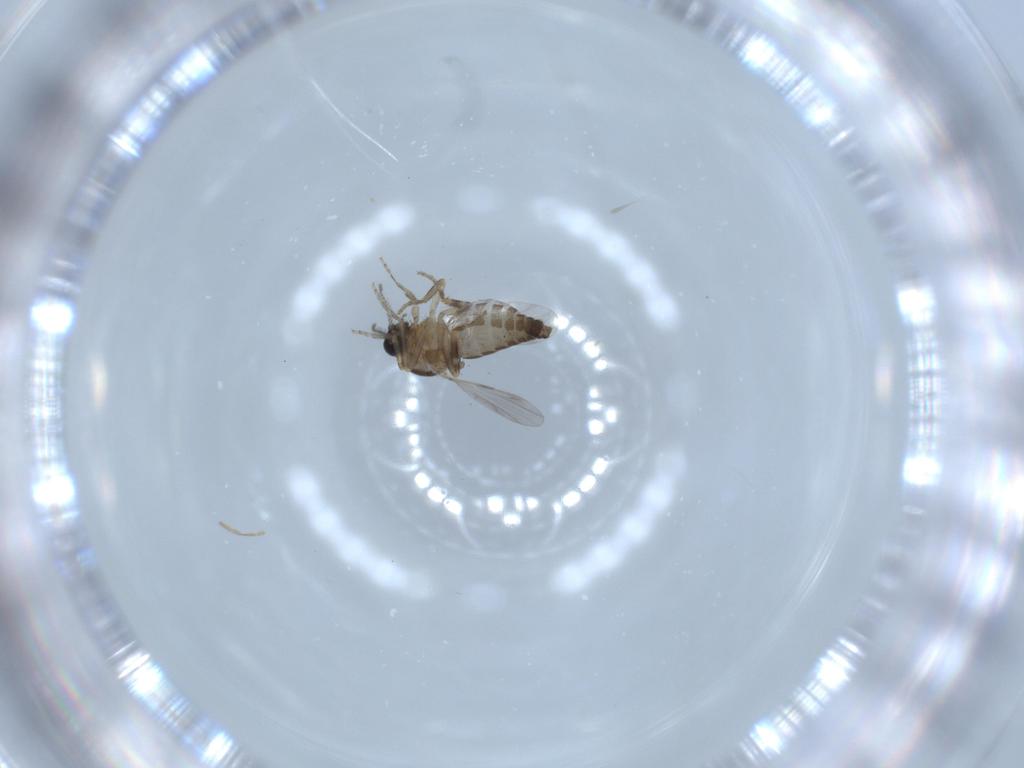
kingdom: Animalia
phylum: Arthropoda
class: Insecta
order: Diptera
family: Ceratopogonidae
